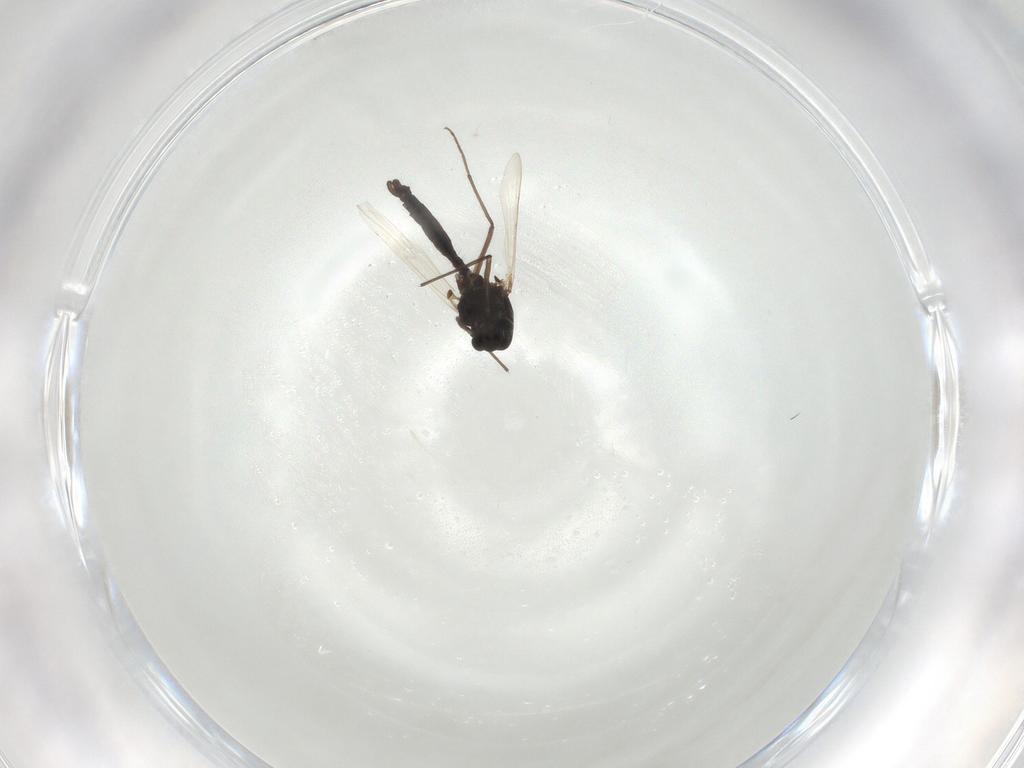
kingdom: Animalia
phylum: Arthropoda
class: Insecta
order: Diptera
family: Chironomidae
